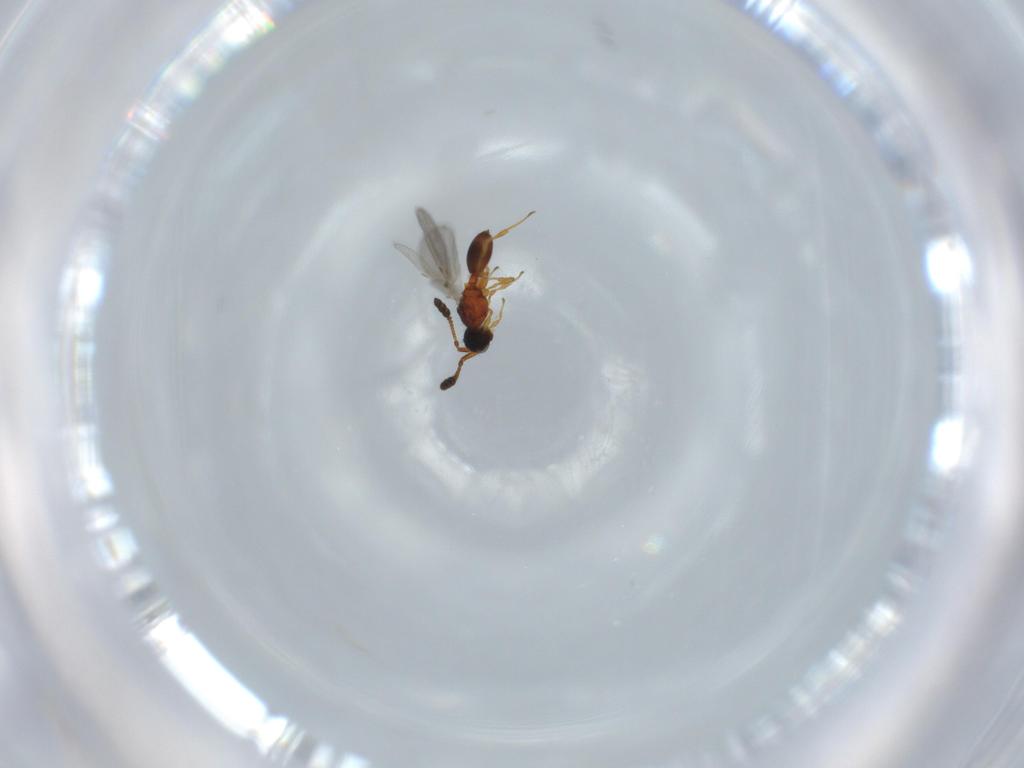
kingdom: Animalia
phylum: Arthropoda
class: Insecta
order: Hymenoptera
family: Diapriidae
